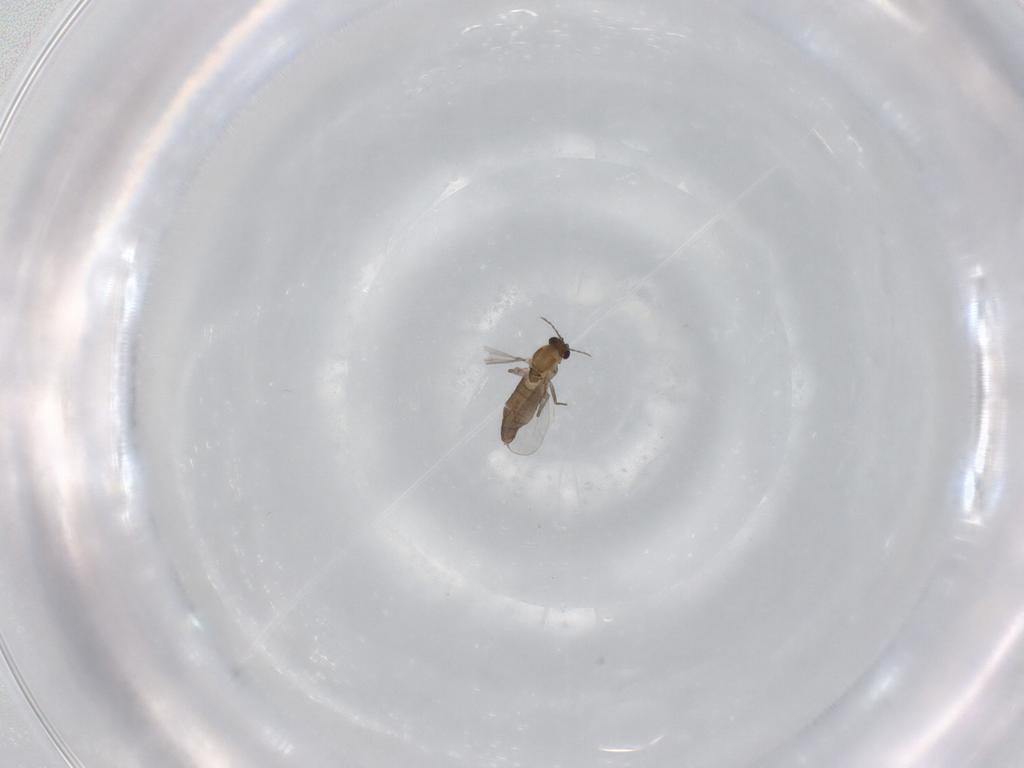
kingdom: Animalia
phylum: Arthropoda
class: Insecta
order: Diptera
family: Chironomidae
